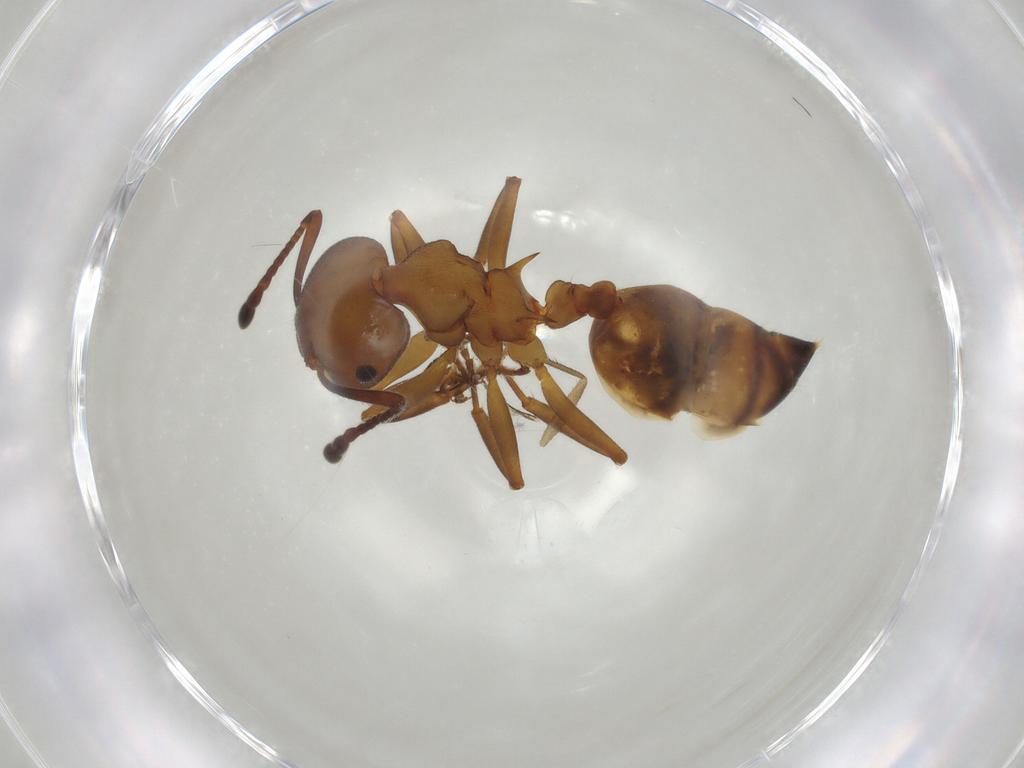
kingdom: Animalia
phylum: Arthropoda
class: Insecta
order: Hymenoptera
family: Formicidae
